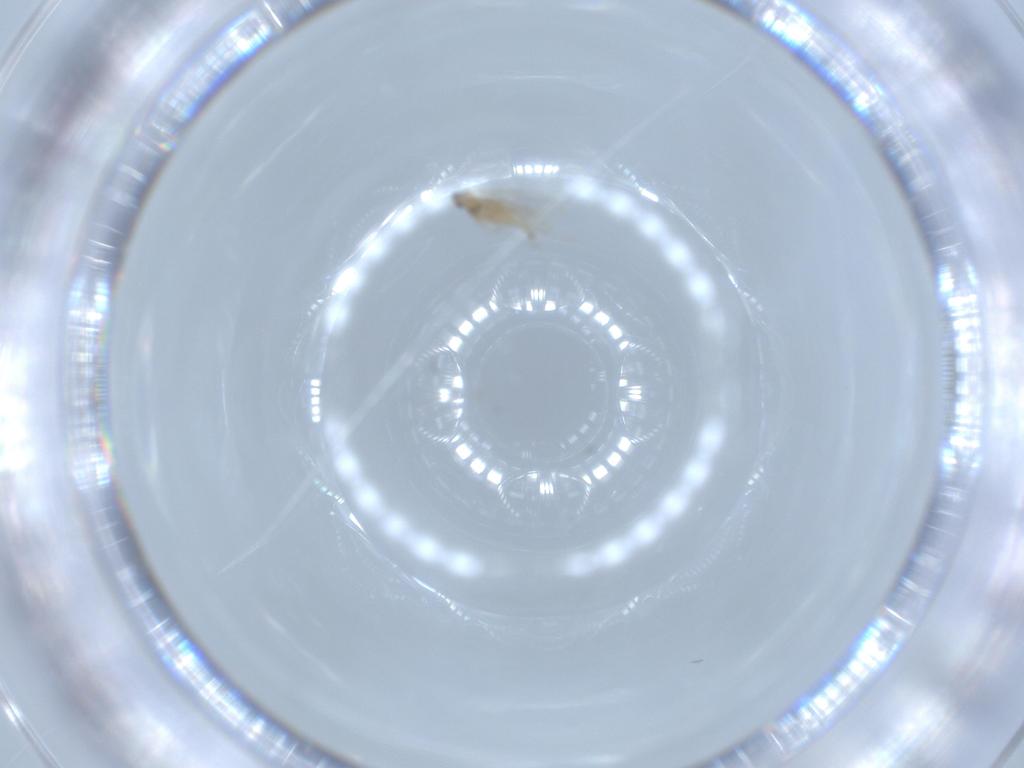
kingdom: Animalia
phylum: Arthropoda
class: Insecta
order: Diptera
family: Cecidomyiidae
